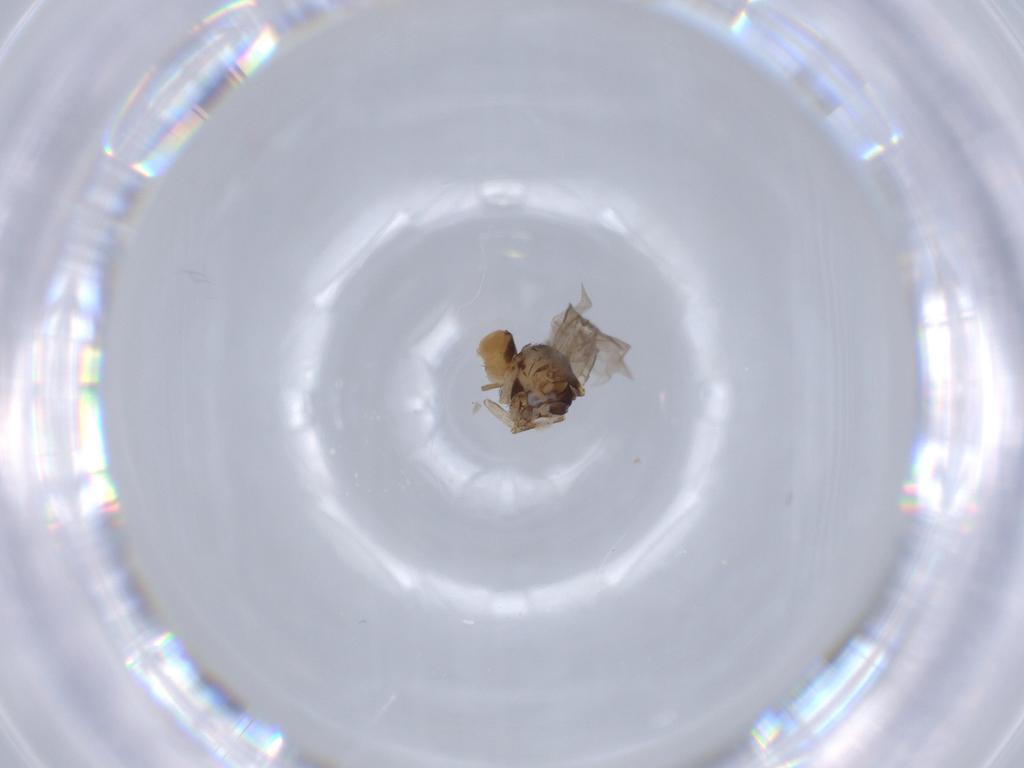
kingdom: Animalia
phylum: Arthropoda
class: Insecta
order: Diptera
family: Agromyzidae
